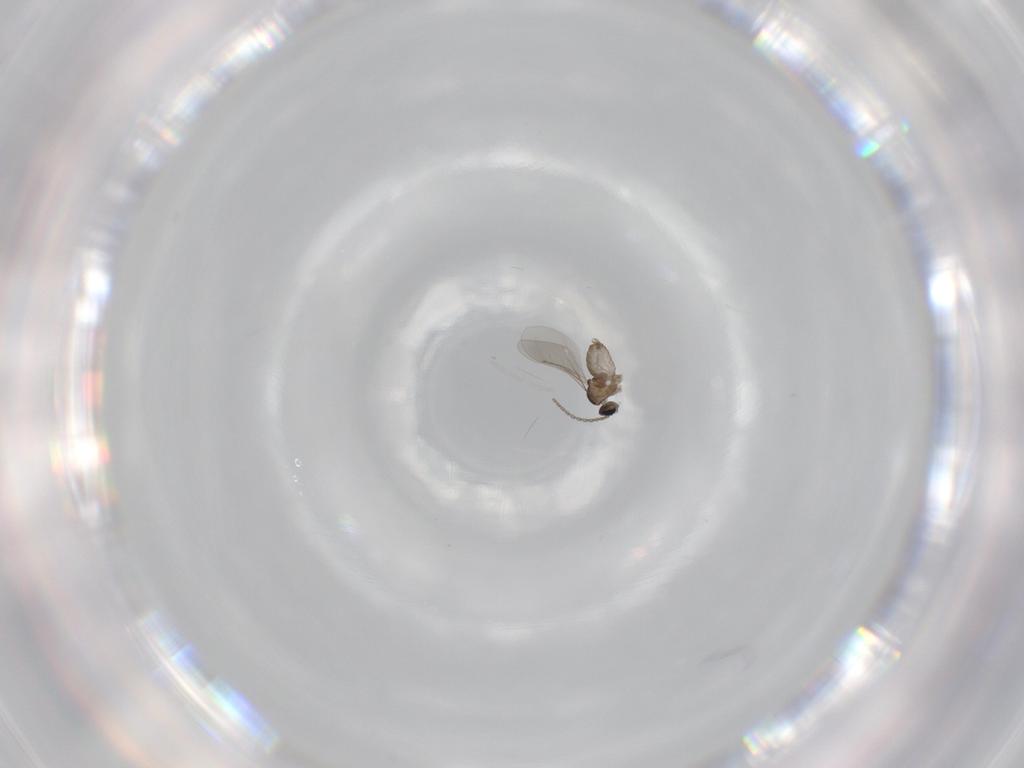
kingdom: Animalia
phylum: Arthropoda
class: Insecta
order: Diptera
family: Cecidomyiidae
